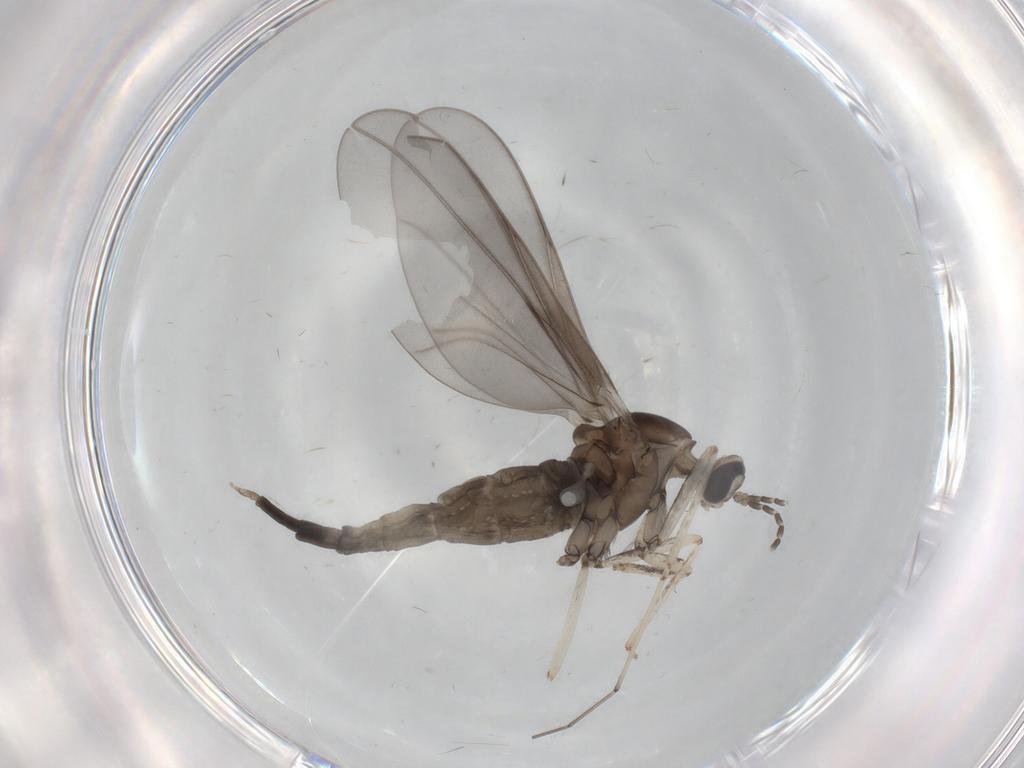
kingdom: Animalia
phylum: Arthropoda
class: Insecta
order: Diptera
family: Cecidomyiidae
